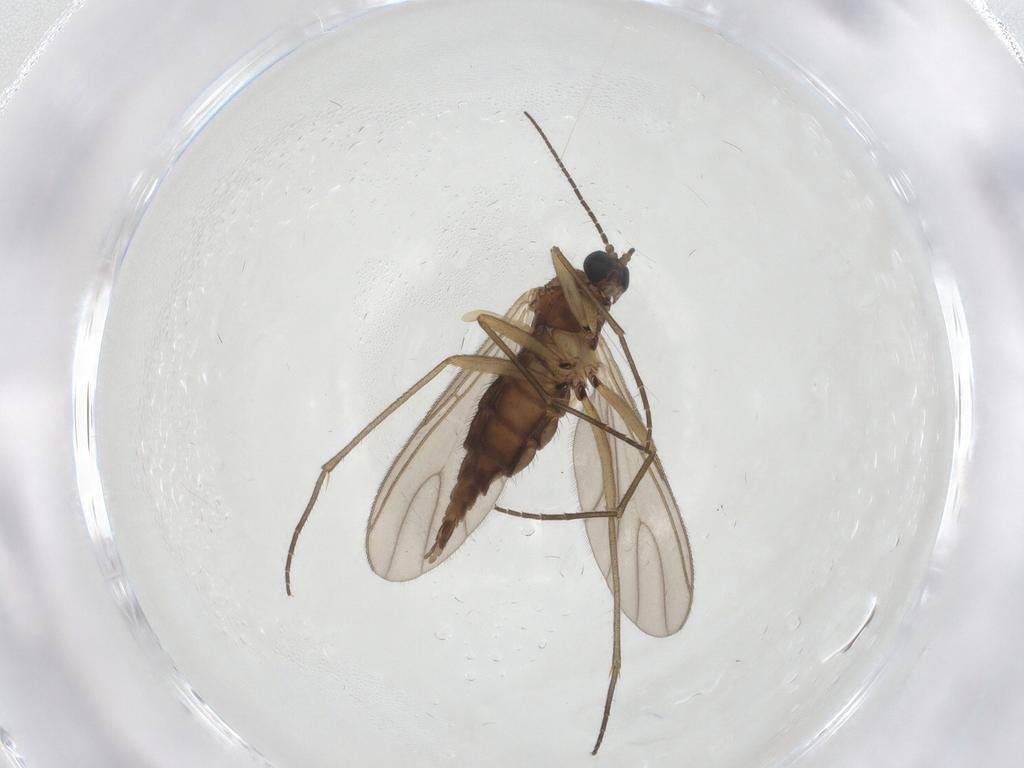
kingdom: Animalia
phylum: Arthropoda
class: Insecta
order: Diptera
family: Sciaridae
